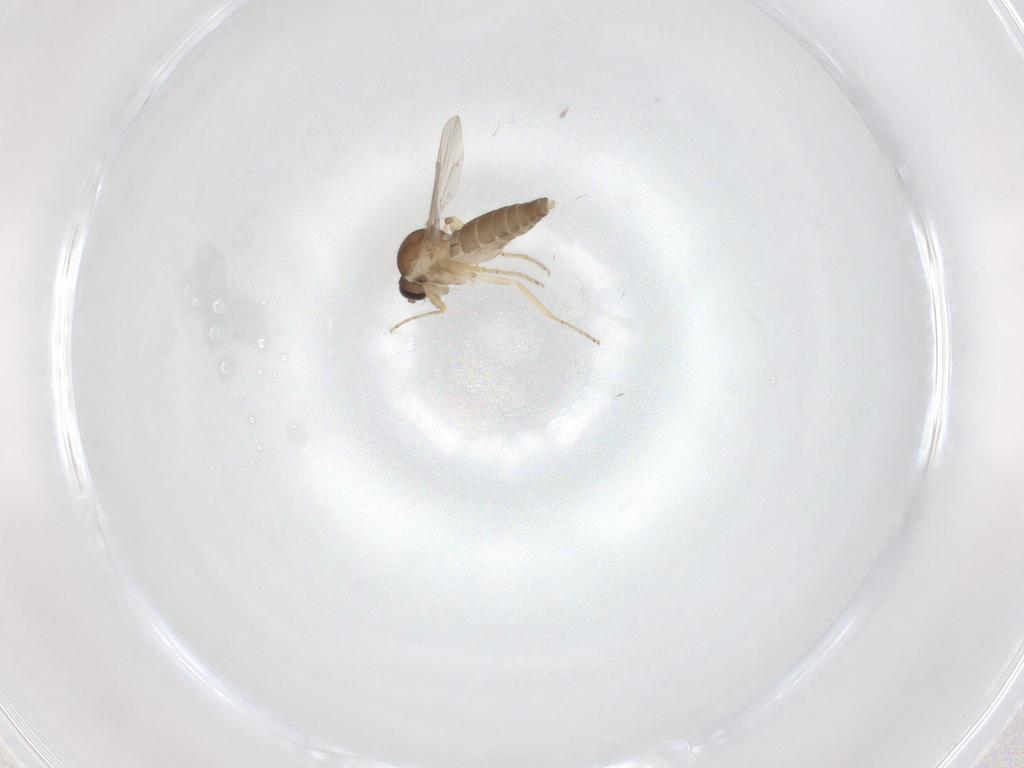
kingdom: Animalia
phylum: Arthropoda
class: Insecta
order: Diptera
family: Ceratopogonidae
